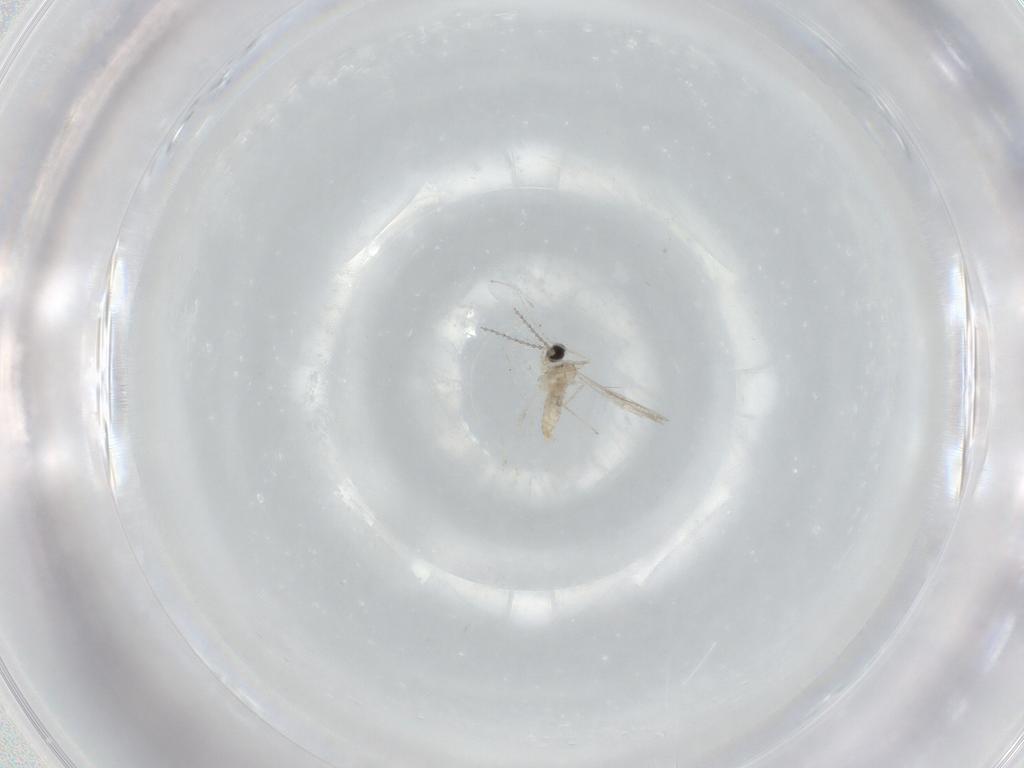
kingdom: Animalia
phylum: Arthropoda
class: Insecta
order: Diptera
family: Cecidomyiidae
